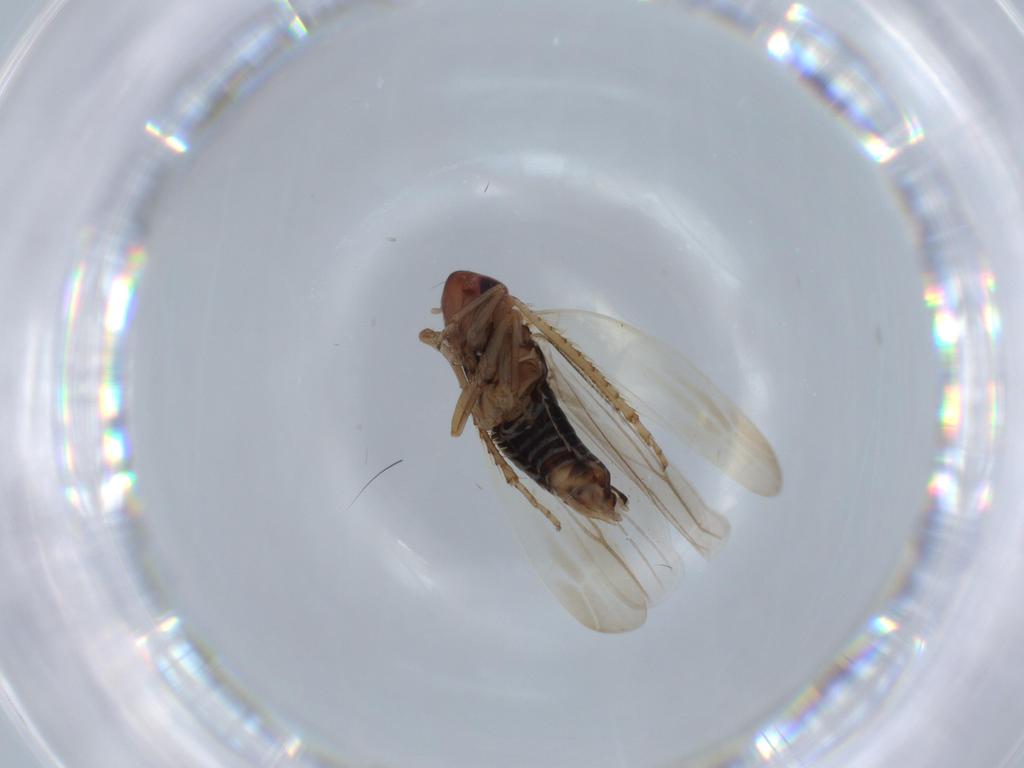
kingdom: Animalia
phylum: Arthropoda
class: Insecta
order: Hemiptera
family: Cicadellidae
